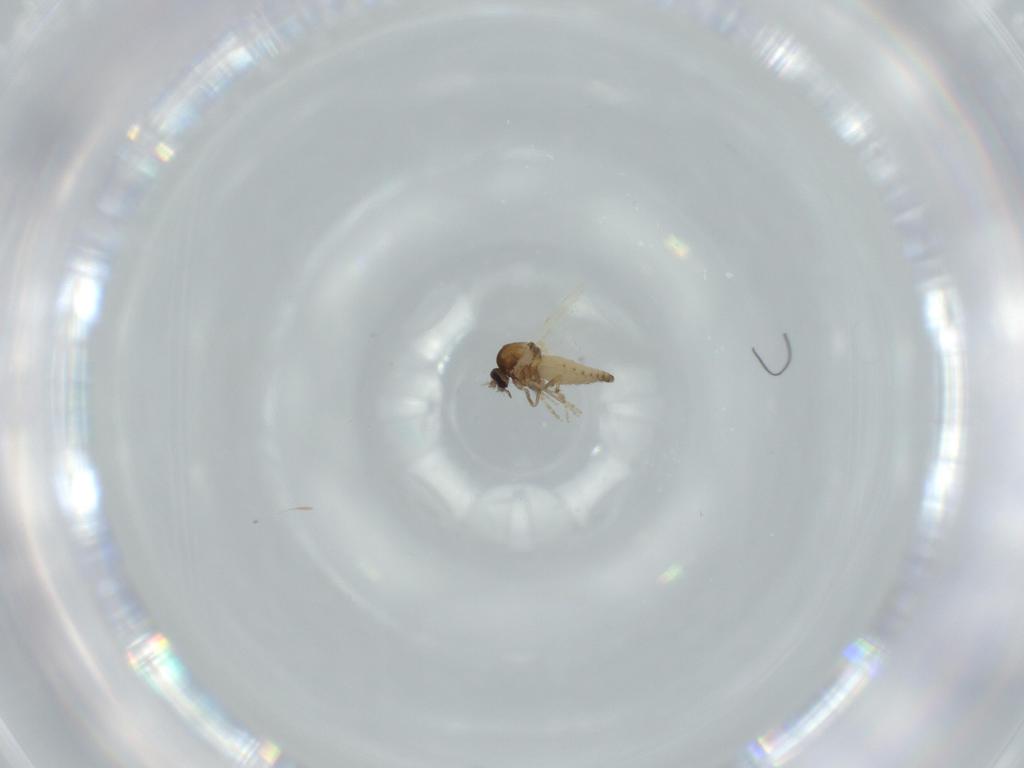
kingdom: Animalia
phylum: Arthropoda
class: Insecta
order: Diptera
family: Ceratopogonidae
